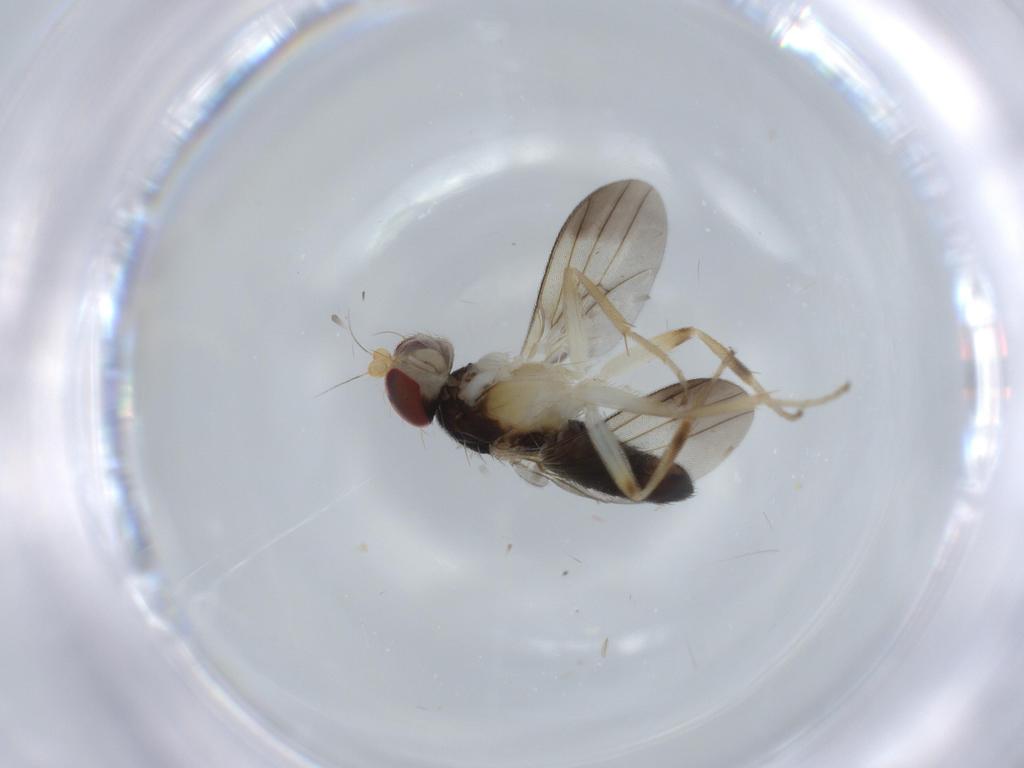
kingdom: Animalia
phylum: Arthropoda
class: Insecta
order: Diptera
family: Clusiidae
